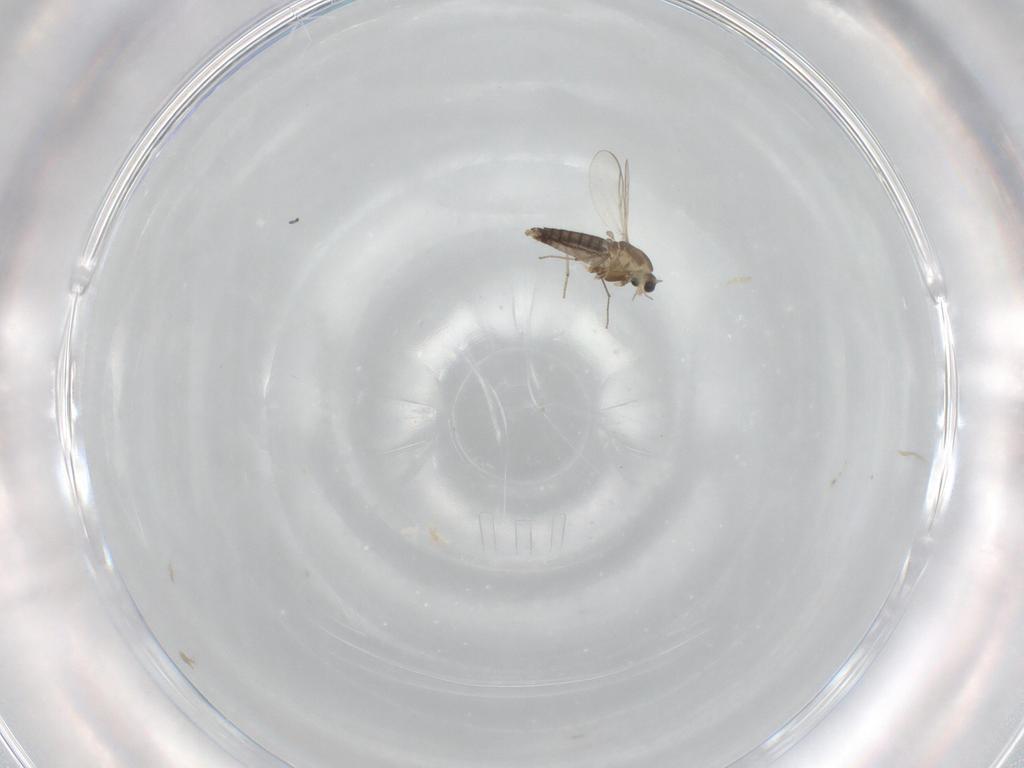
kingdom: Animalia
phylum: Arthropoda
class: Insecta
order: Diptera
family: Cecidomyiidae
